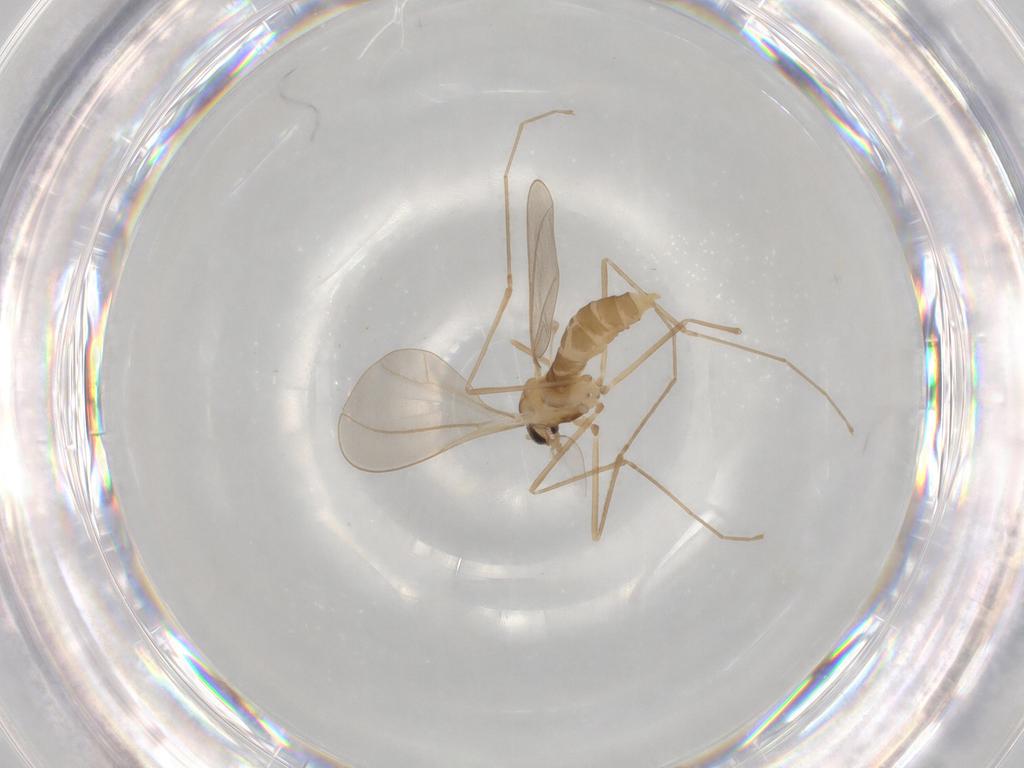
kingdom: Animalia
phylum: Arthropoda
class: Insecta
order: Diptera
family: Cecidomyiidae
